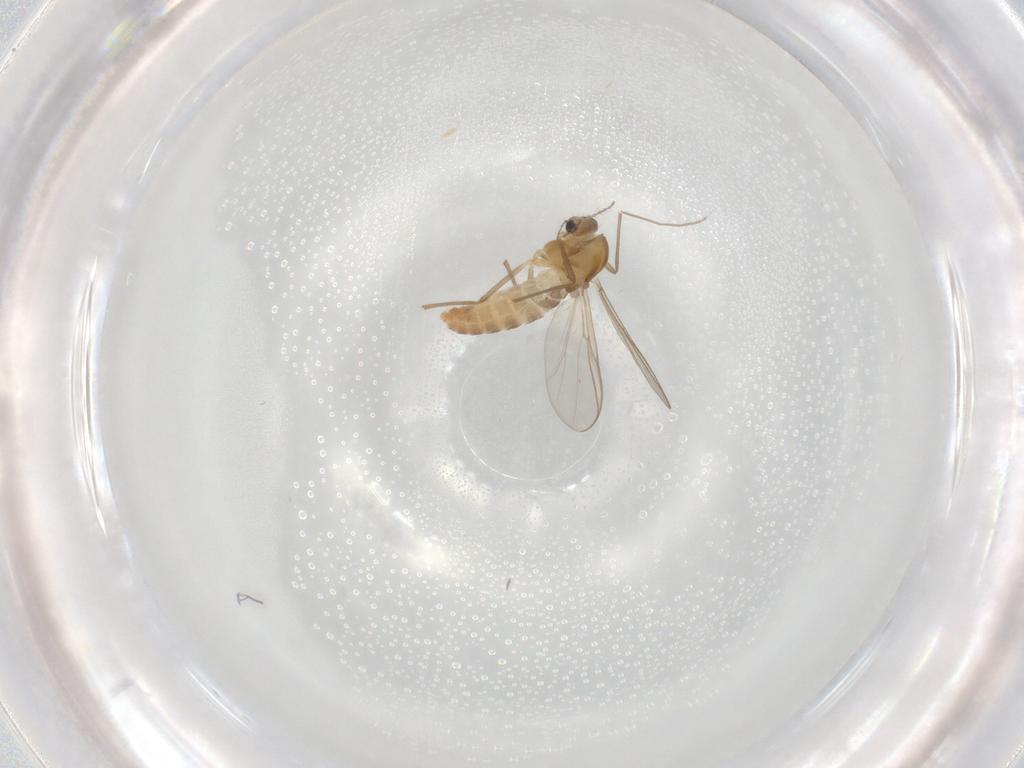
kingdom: Animalia
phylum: Arthropoda
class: Insecta
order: Diptera
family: Chironomidae
